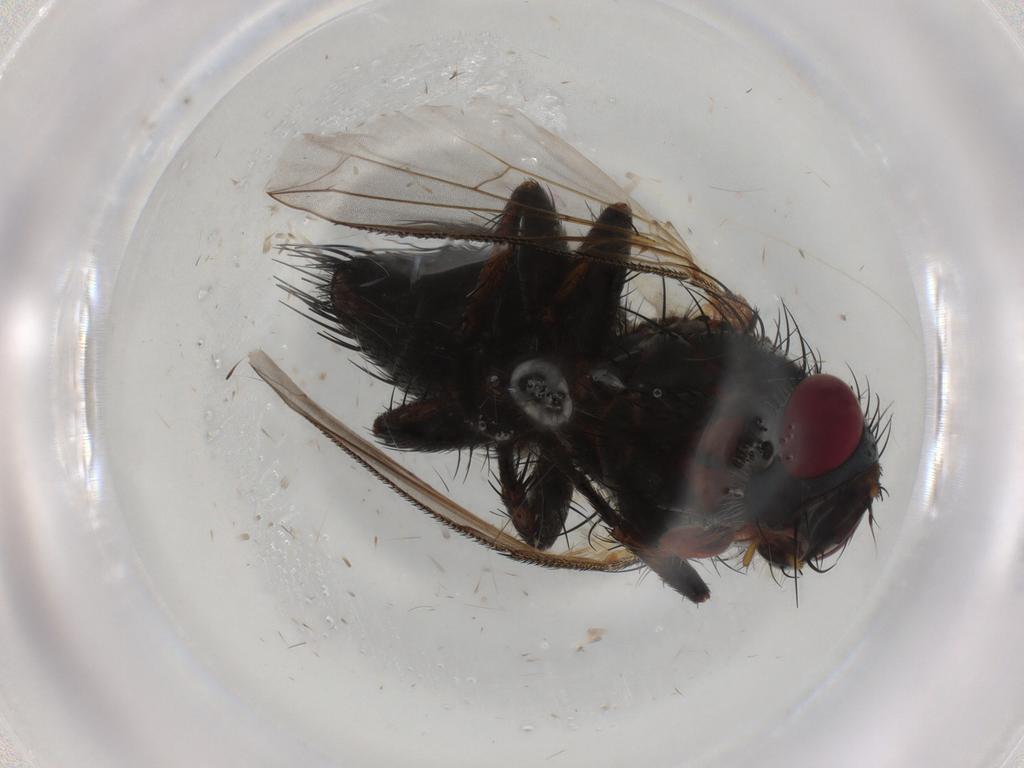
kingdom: Animalia
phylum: Arthropoda
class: Insecta
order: Diptera
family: Tachinidae
